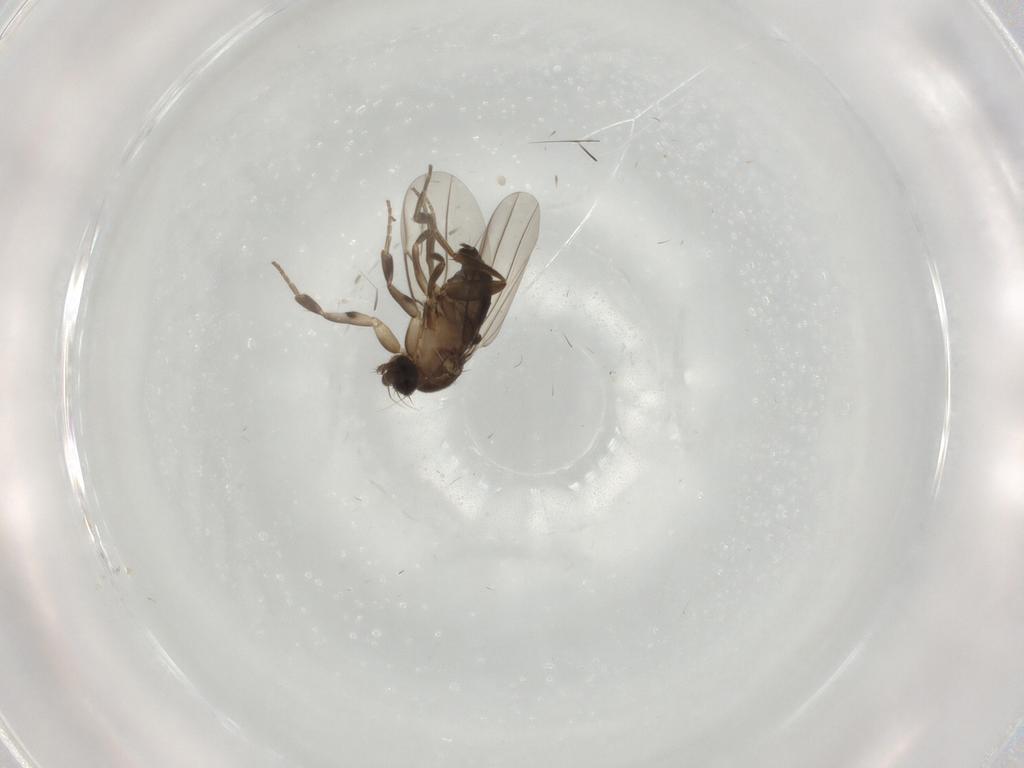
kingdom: Animalia
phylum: Arthropoda
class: Insecta
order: Diptera
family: Phoridae
